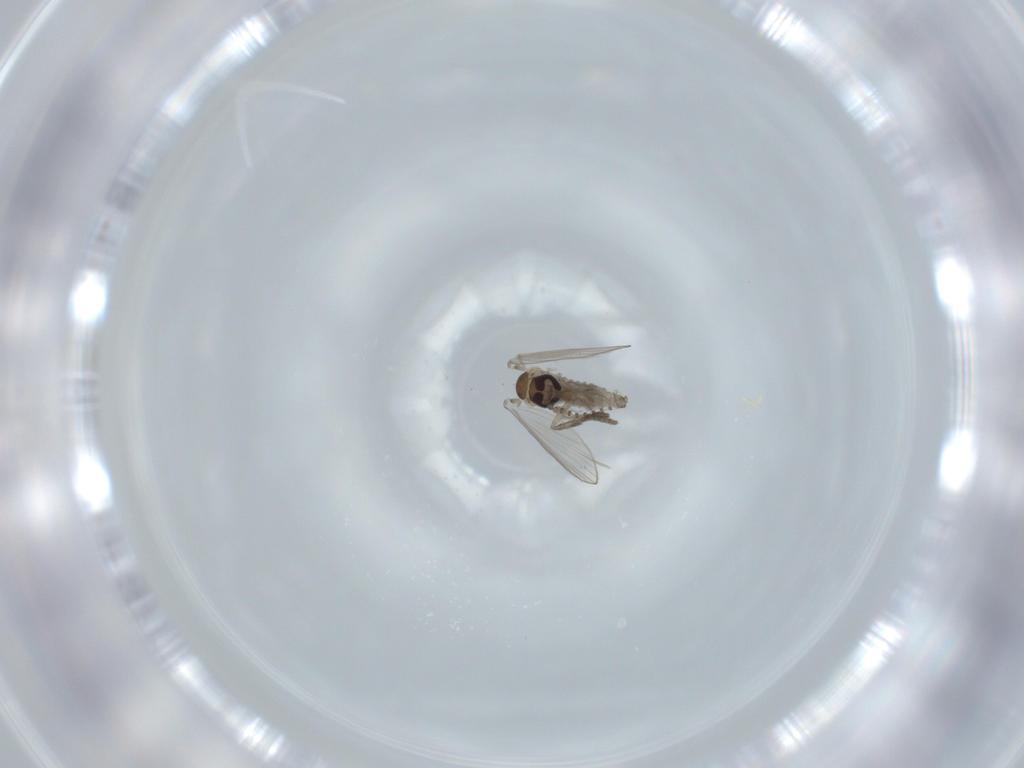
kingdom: Animalia
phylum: Arthropoda
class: Insecta
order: Diptera
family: Psychodidae
